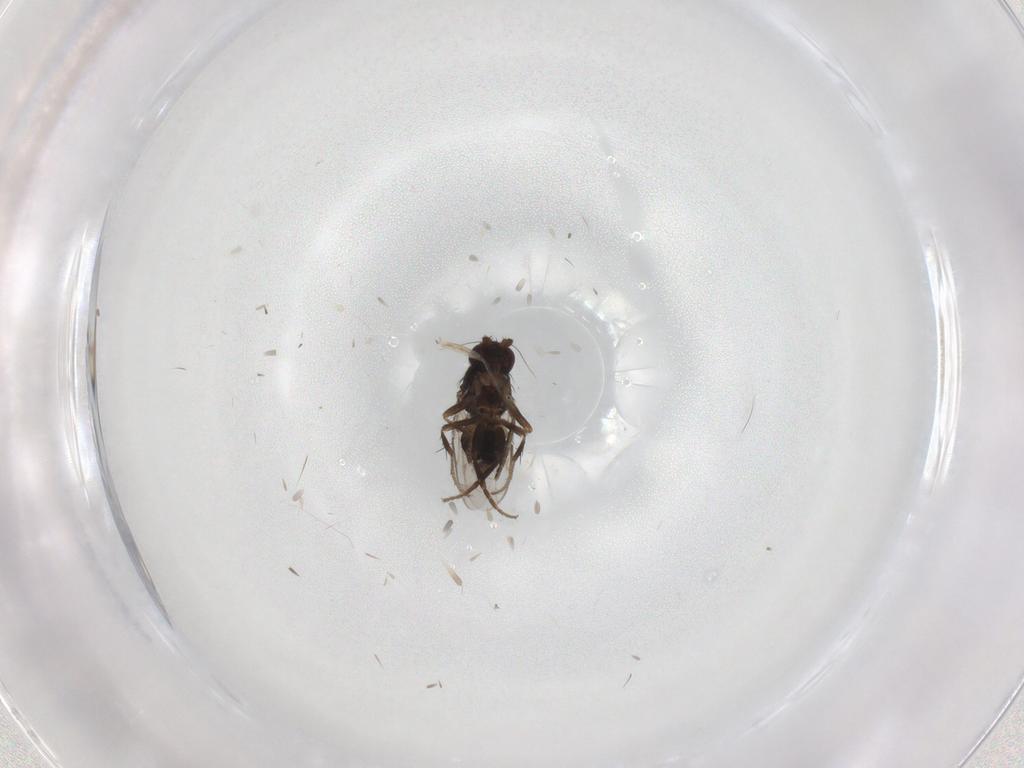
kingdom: Animalia
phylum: Arthropoda
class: Insecta
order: Diptera
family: Sphaeroceridae
